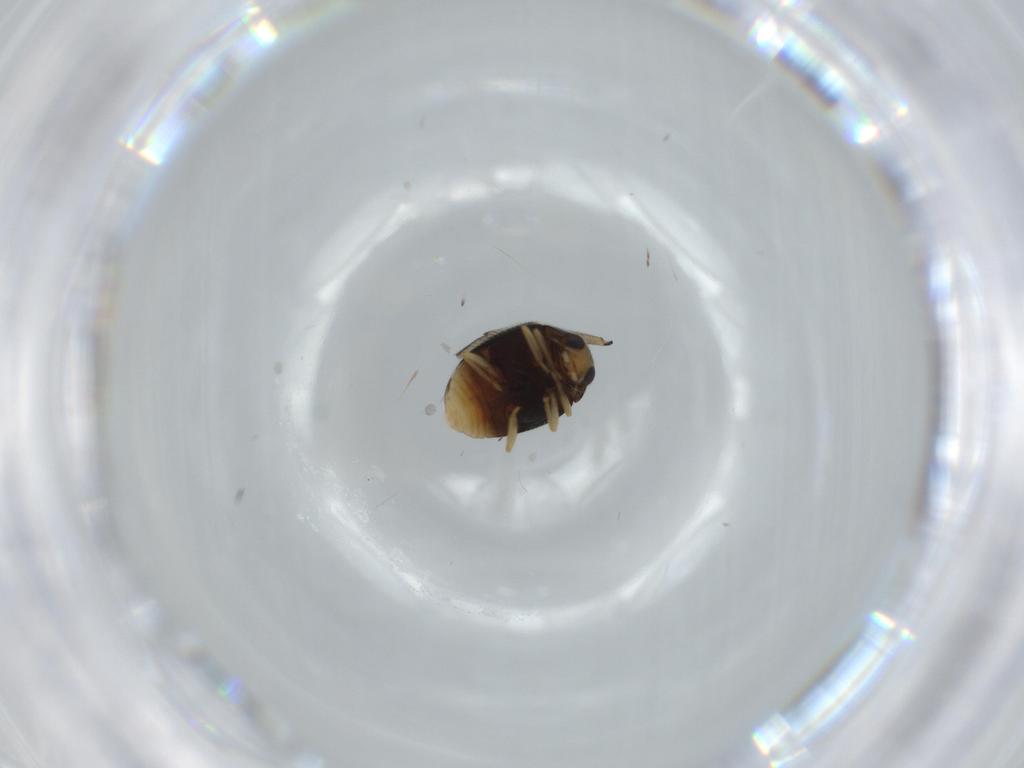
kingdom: Animalia
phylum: Arthropoda
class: Insecta
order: Coleoptera
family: Coccinellidae
